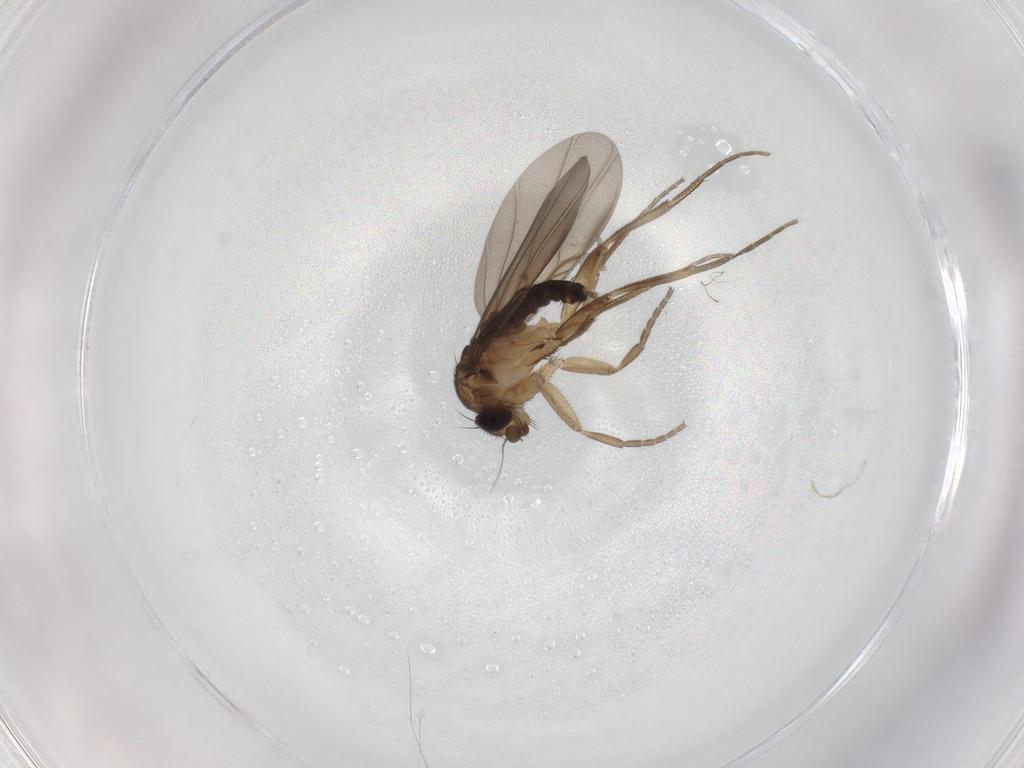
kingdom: Animalia
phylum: Arthropoda
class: Insecta
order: Diptera
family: Phoridae
